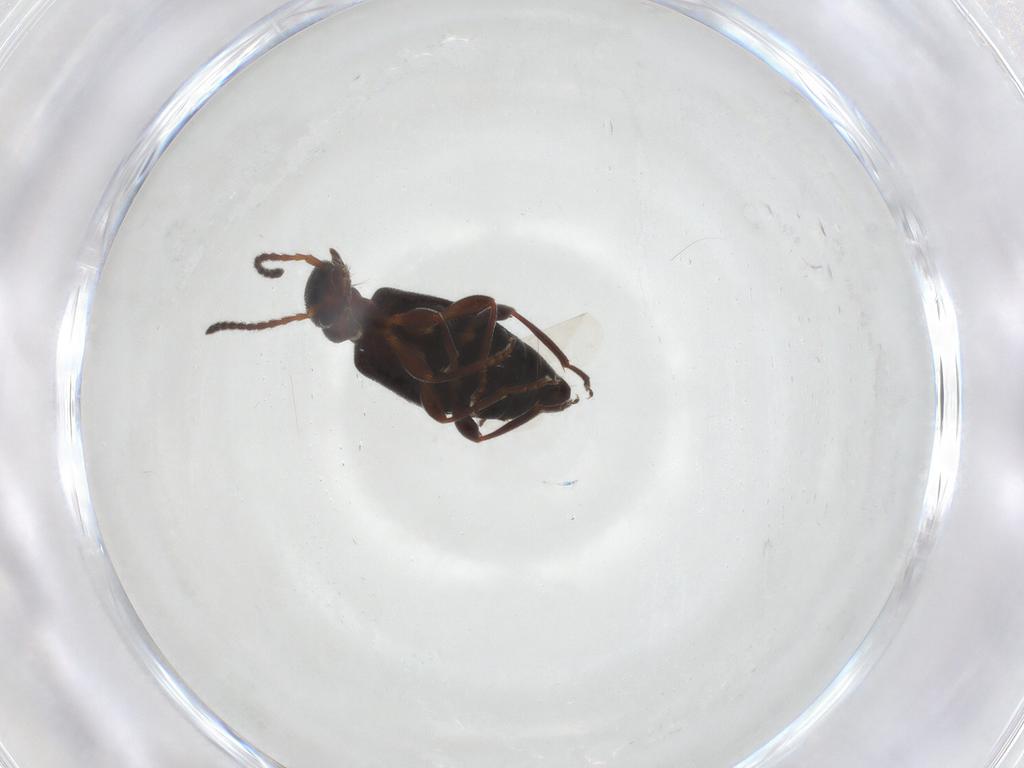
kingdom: Animalia
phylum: Arthropoda
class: Insecta
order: Coleoptera
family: Anthicidae
